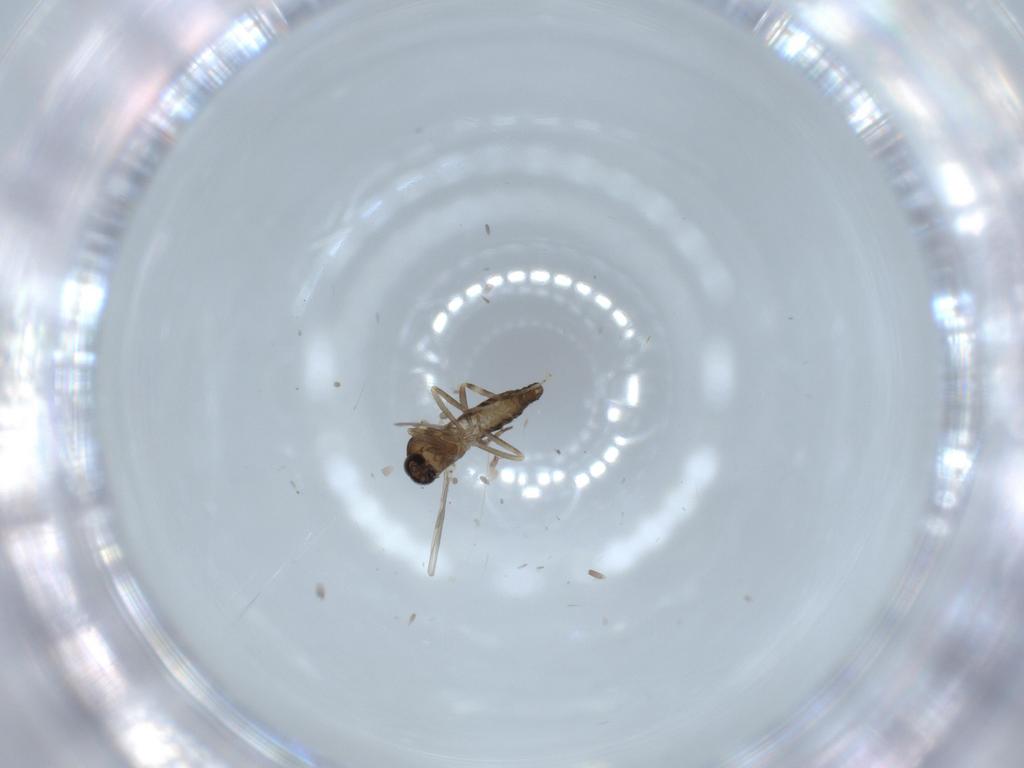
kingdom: Animalia
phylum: Arthropoda
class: Insecta
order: Diptera
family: Ceratopogonidae
